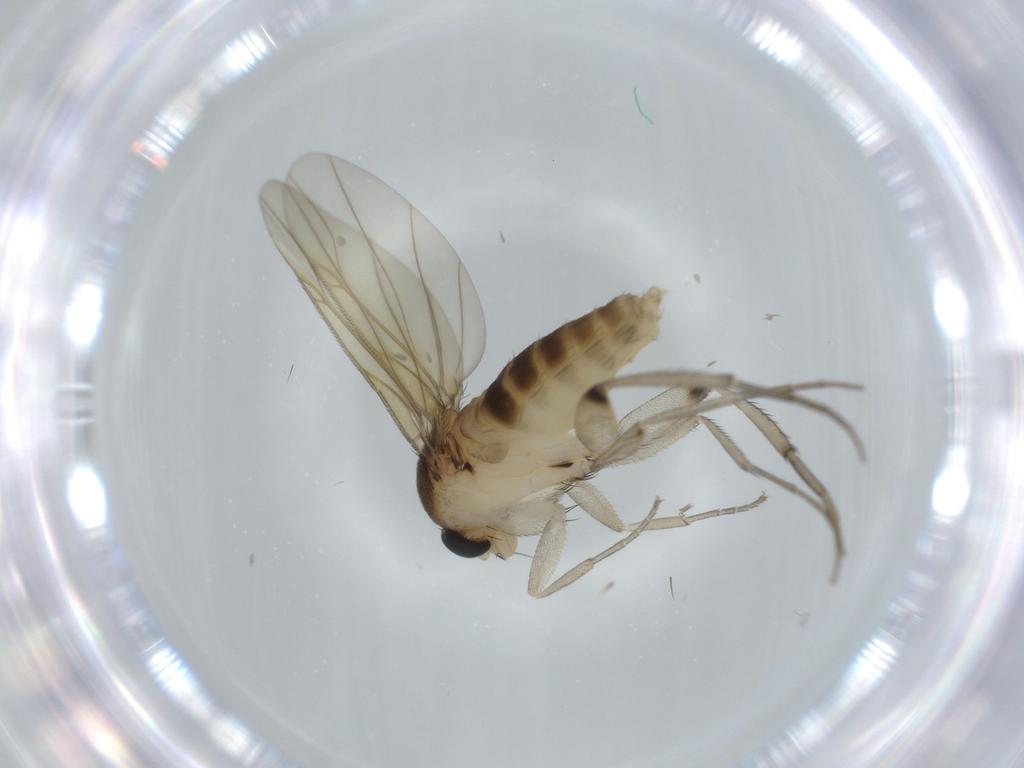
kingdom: Animalia
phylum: Arthropoda
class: Insecta
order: Diptera
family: Cecidomyiidae
